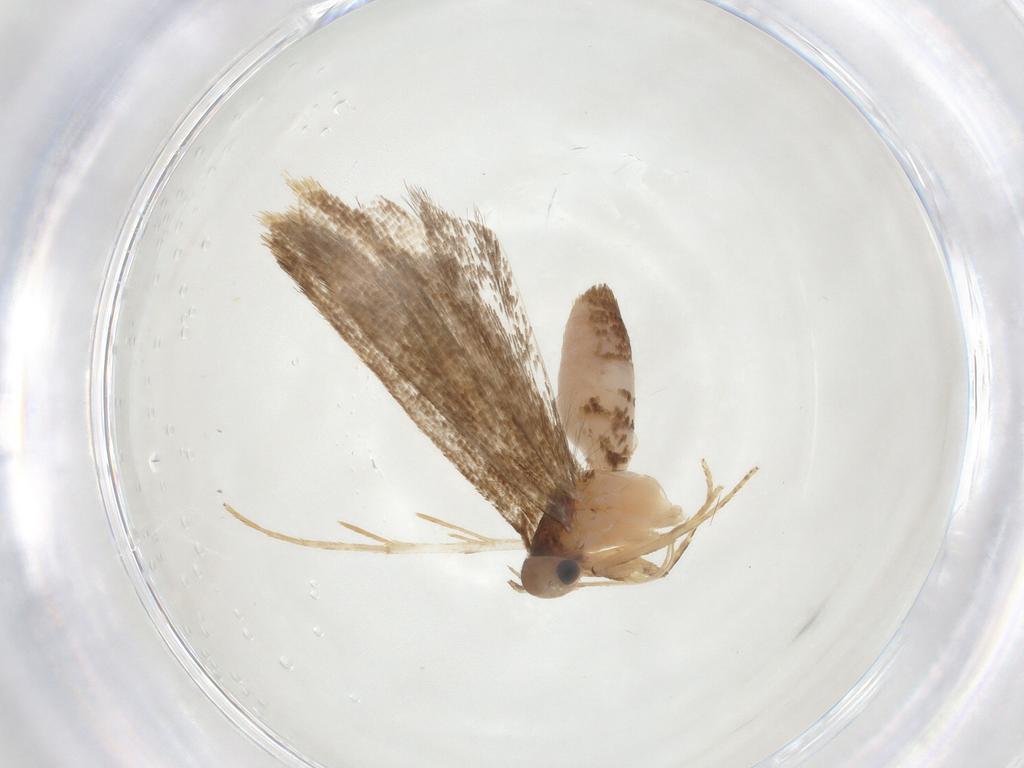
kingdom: Animalia
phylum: Arthropoda
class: Insecta
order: Lepidoptera
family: Gelechiidae
